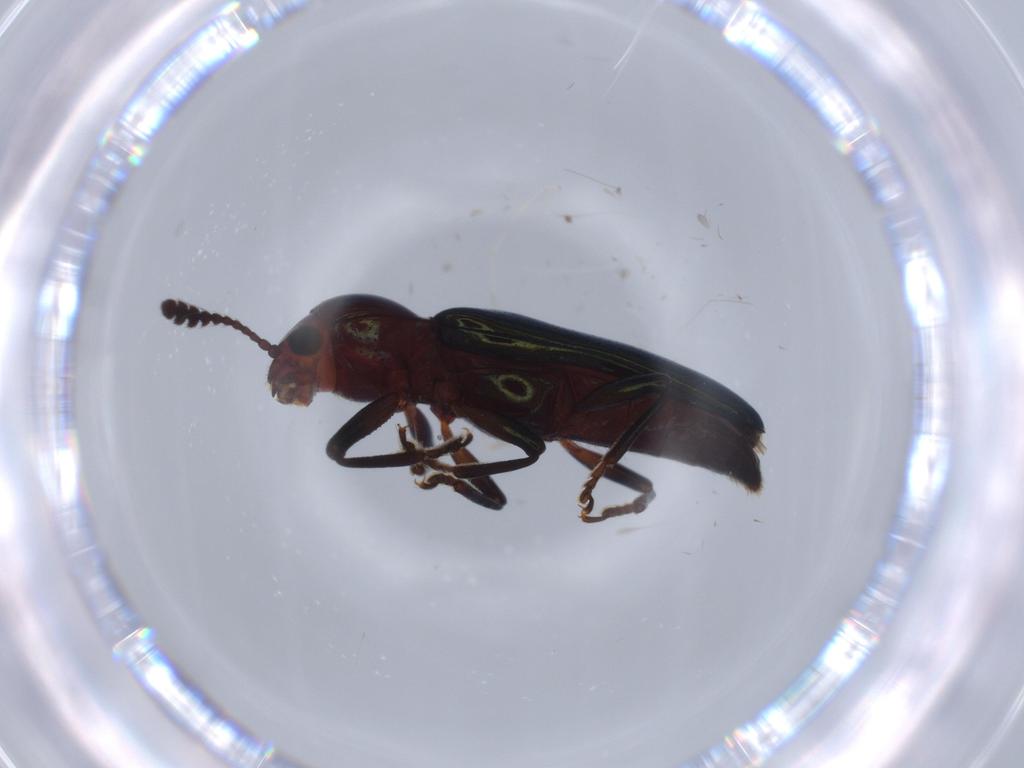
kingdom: Animalia
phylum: Arthropoda
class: Insecta
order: Coleoptera
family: Erotylidae
